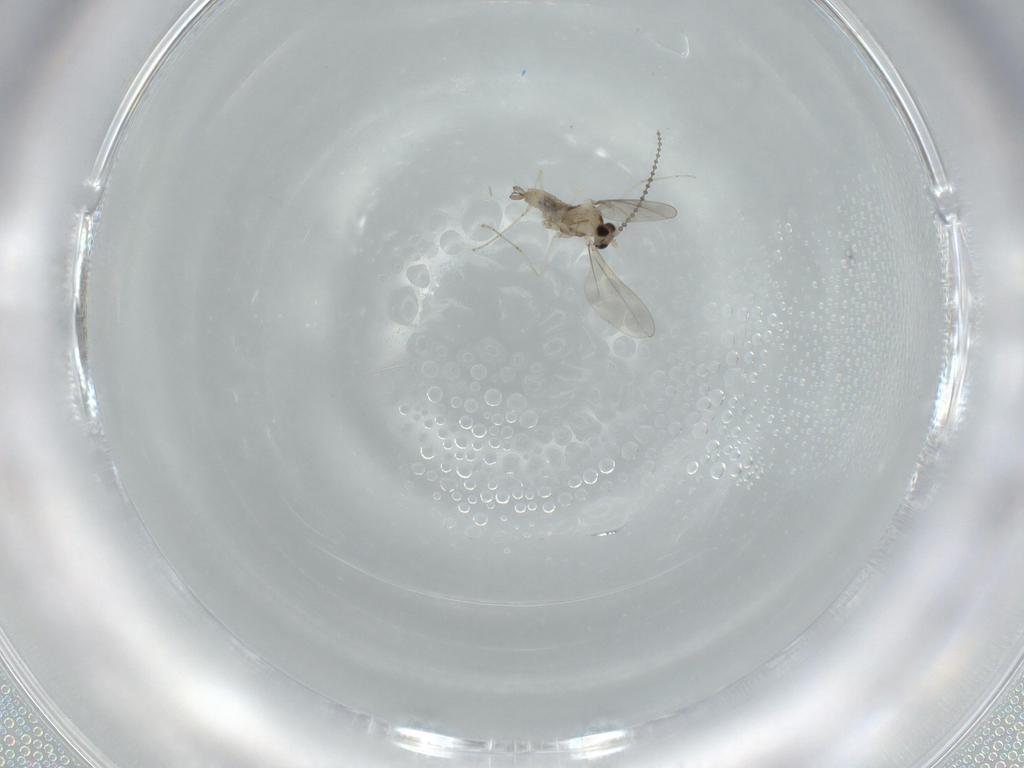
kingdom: Animalia
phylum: Arthropoda
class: Insecta
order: Diptera
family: Cecidomyiidae
